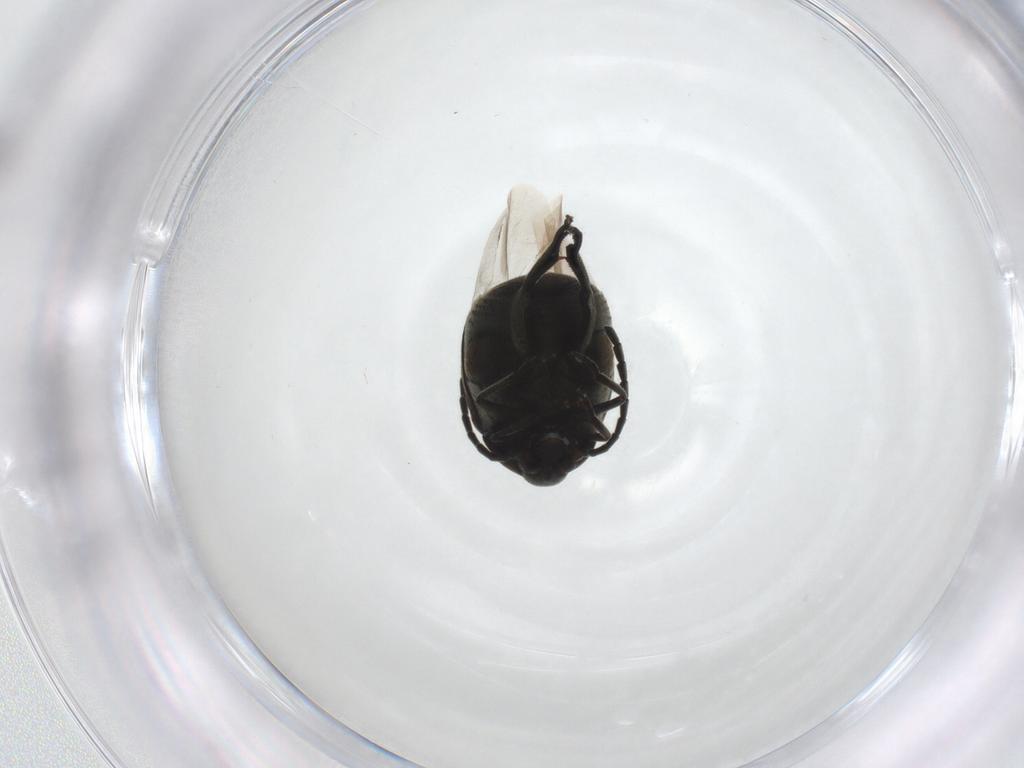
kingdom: Animalia
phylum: Arthropoda
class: Insecta
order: Coleoptera
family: Chrysomelidae
